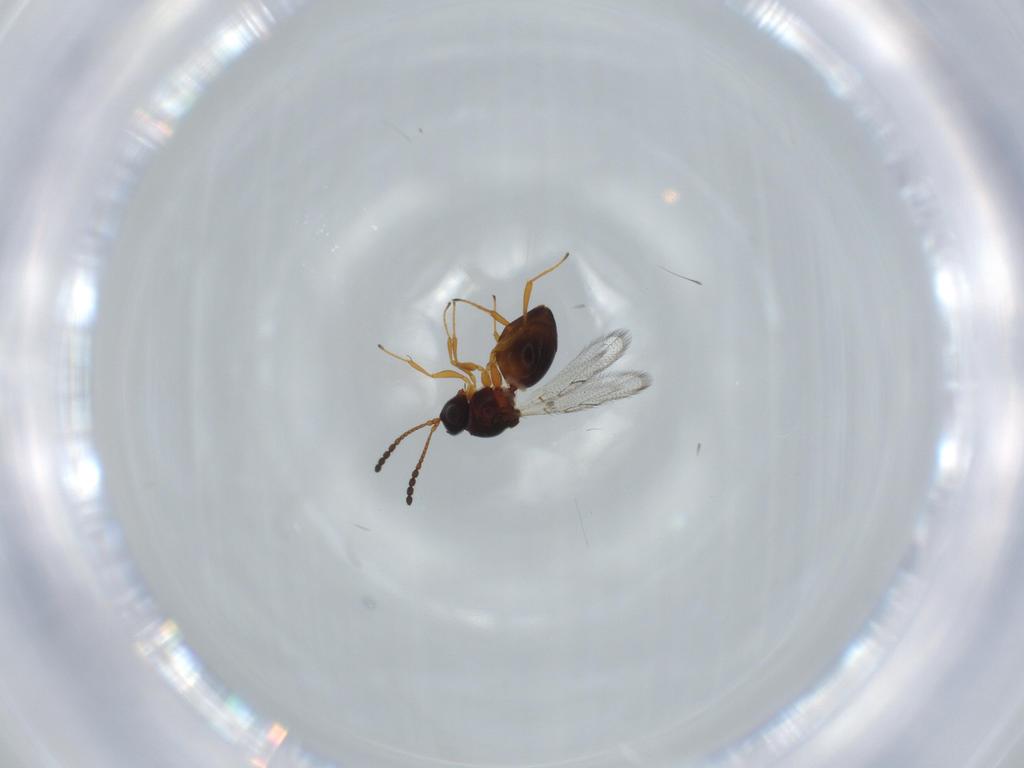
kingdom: Animalia
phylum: Arthropoda
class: Insecta
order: Hymenoptera
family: Figitidae
